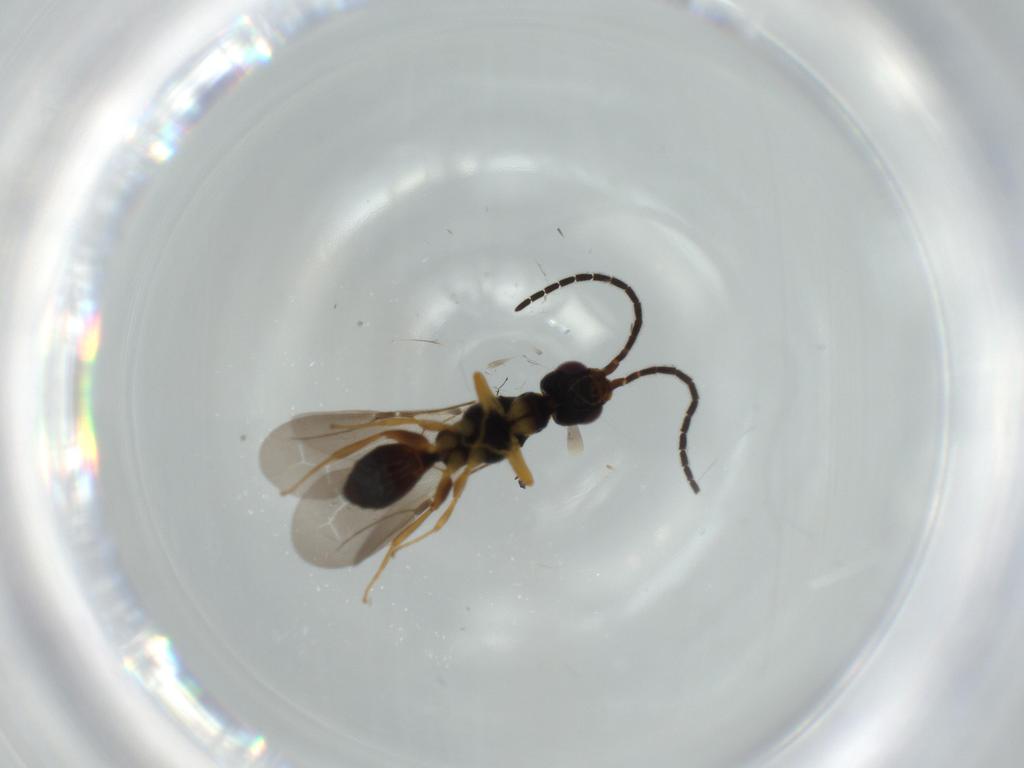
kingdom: Animalia
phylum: Arthropoda
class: Insecta
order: Hymenoptera
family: Bethylidae
